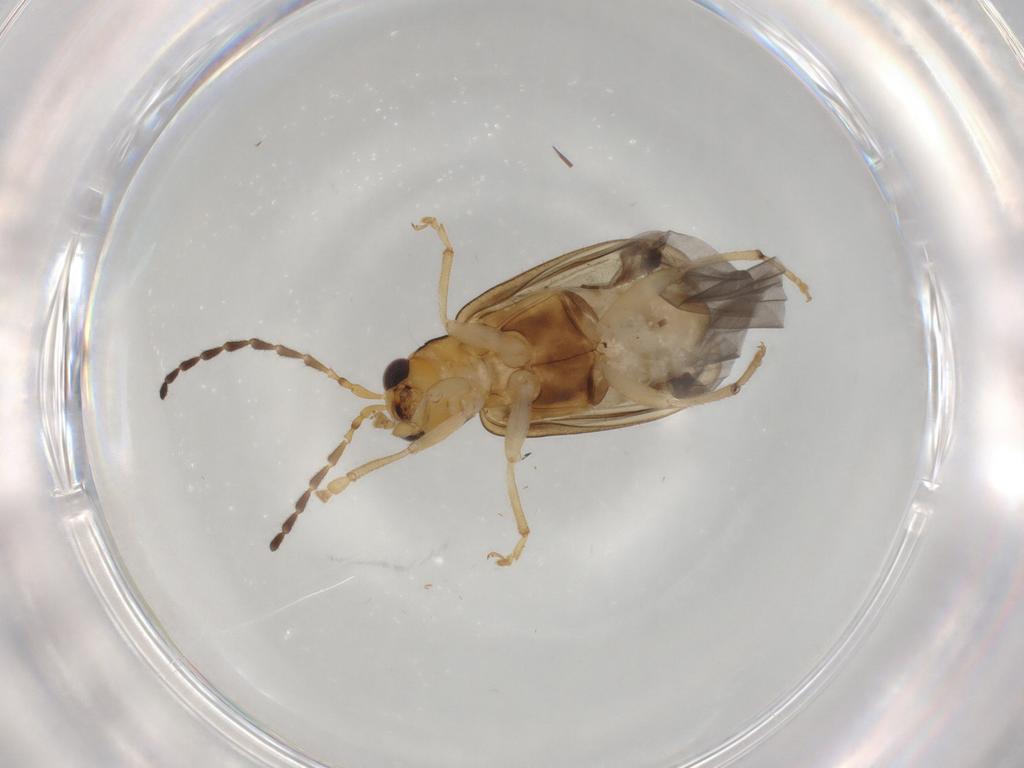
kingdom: Animalia
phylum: Arthropoda
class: Insecta
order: Coleoptera
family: Chrysomelidae
